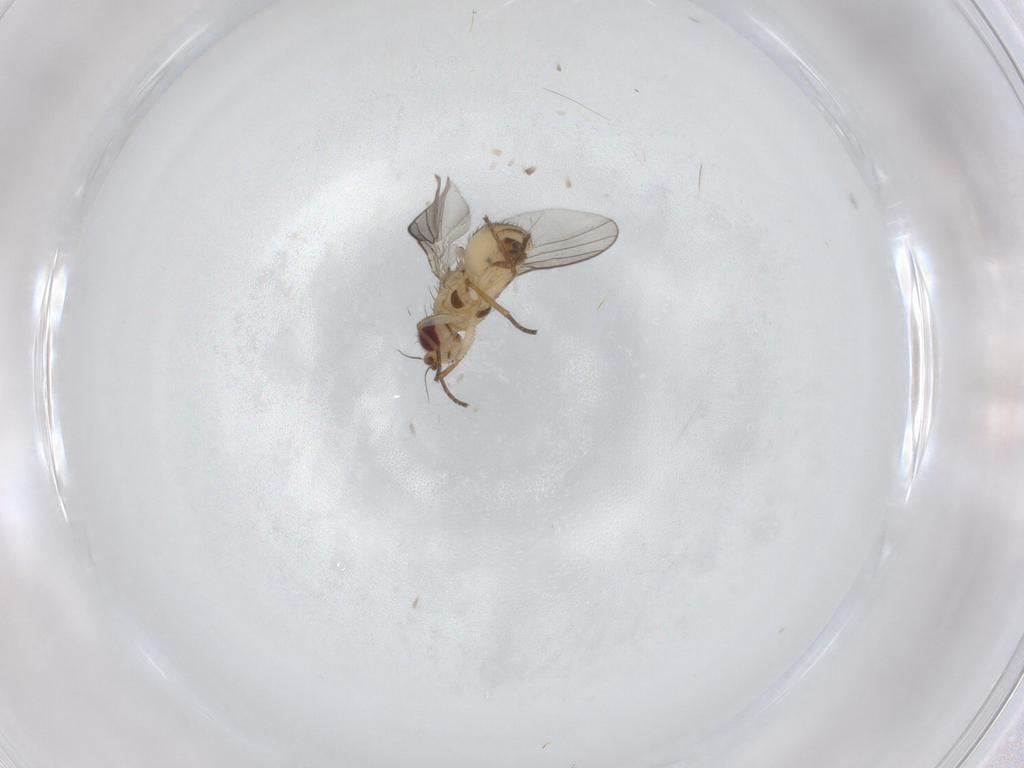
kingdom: Animalia
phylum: Arthropoda
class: Insecta
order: Diptera
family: Agromyzidae
